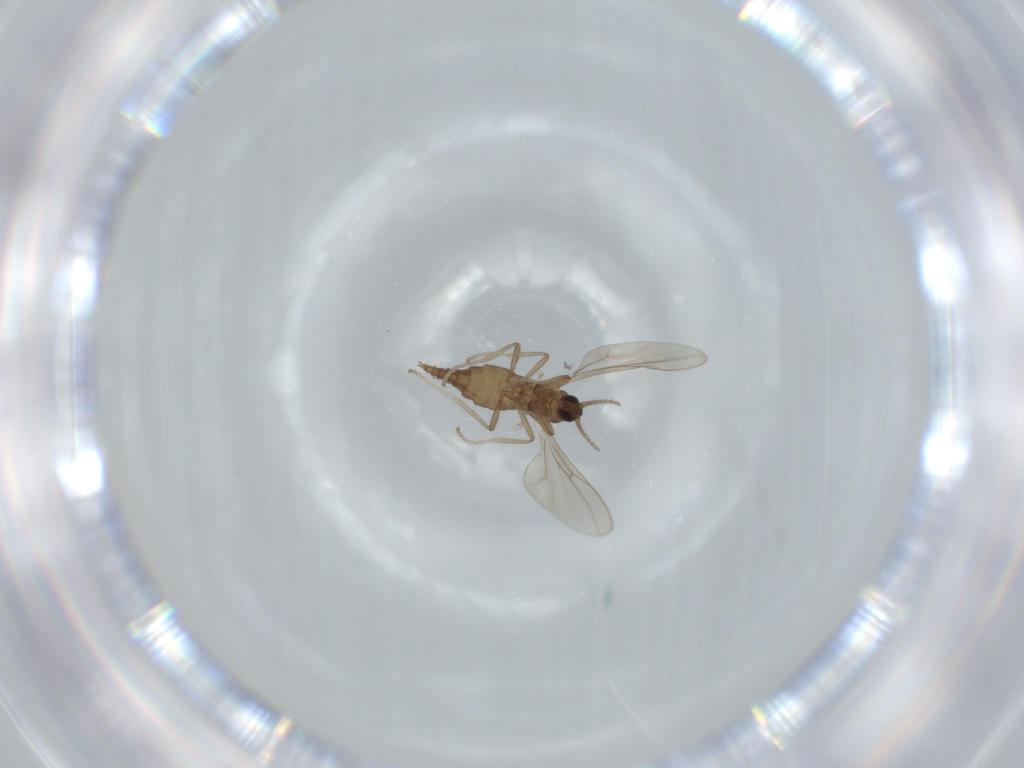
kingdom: Animalia
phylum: Arthropoda
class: Insecta
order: Diptera
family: Cecidomyiidae
